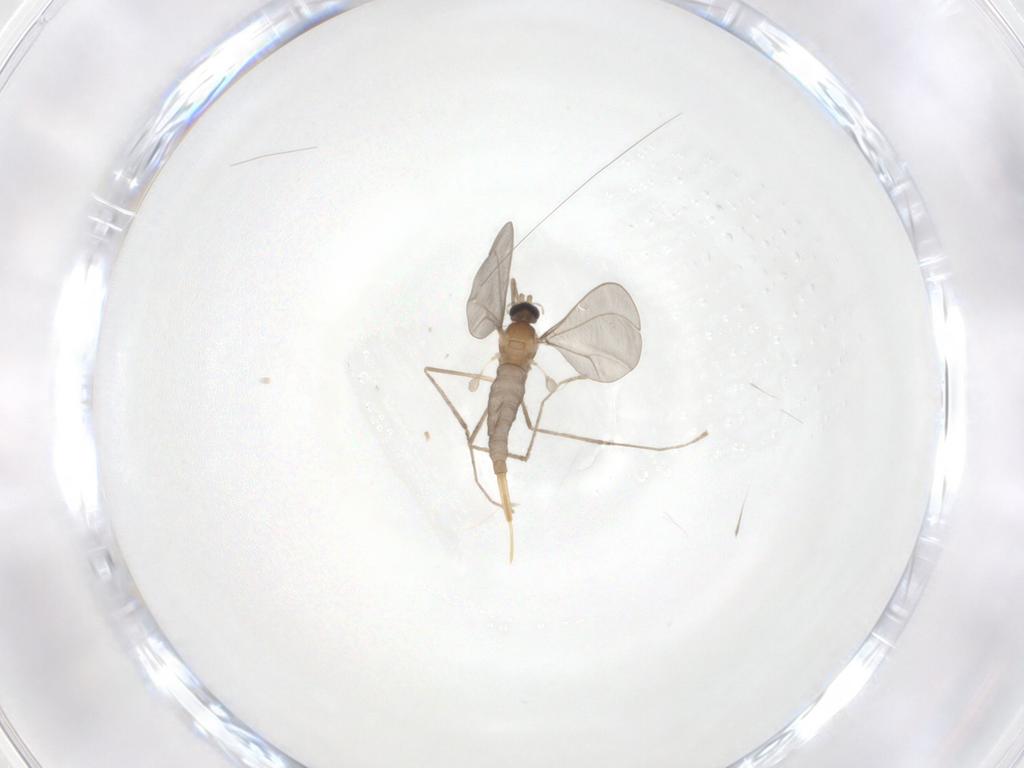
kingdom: Animalia
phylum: Arthropoda
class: Insecta
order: Diptera
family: Cecidomyiidae
